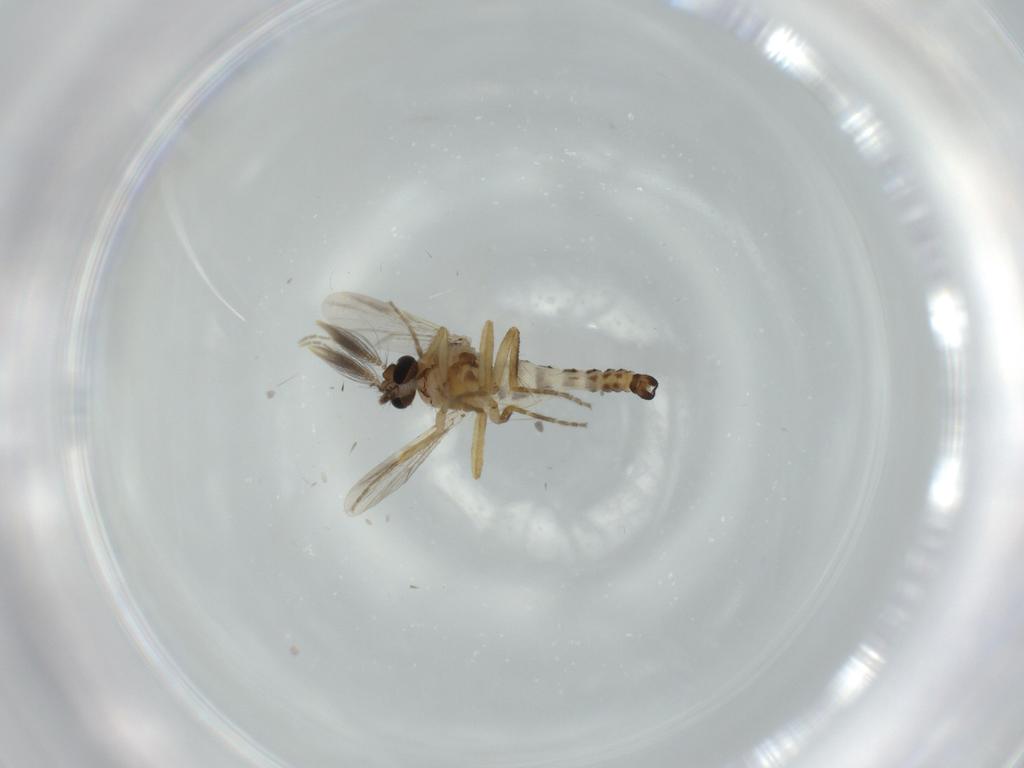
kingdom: Animalia
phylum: Arthropoda
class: Insecta
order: Diptera
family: Ceratopogonidae
